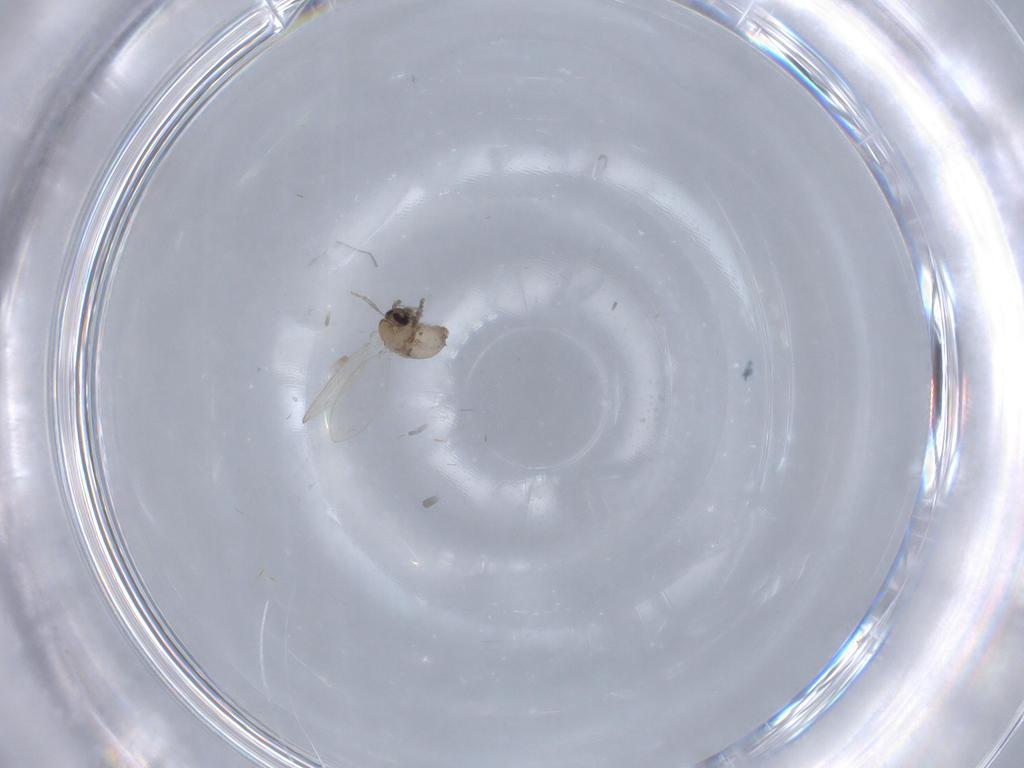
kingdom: Animalia
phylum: Arthropoda
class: Insecta
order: Diptera
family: Psychodidae
